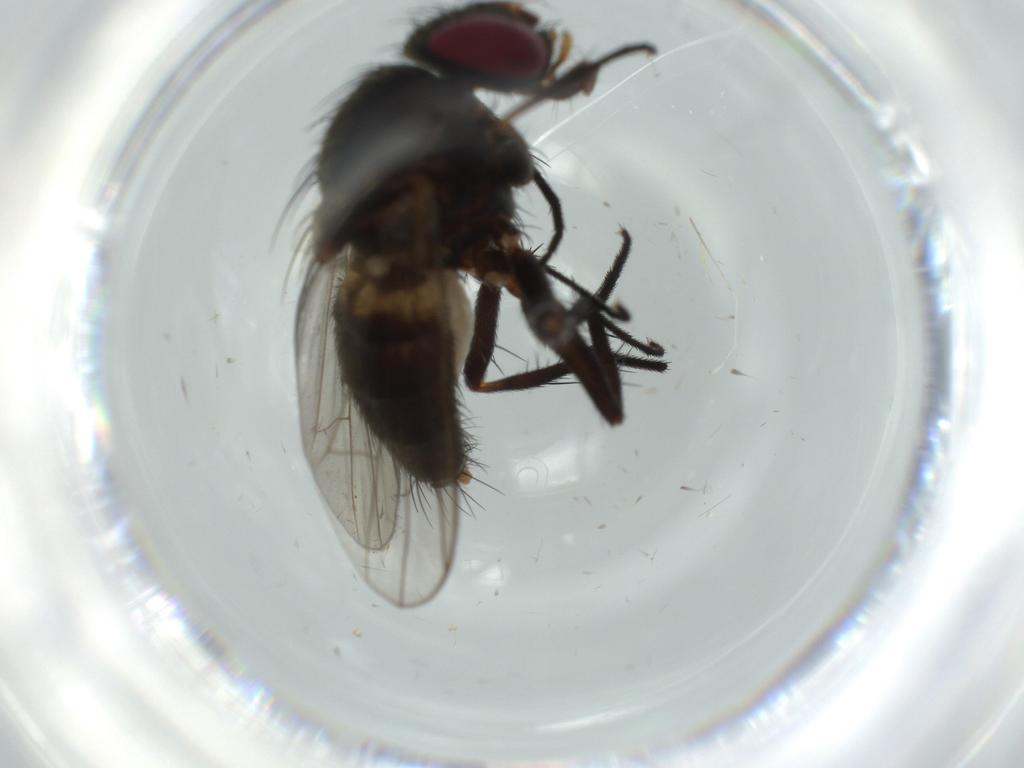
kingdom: Animalia
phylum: Arthropoda
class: Insecta
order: Diptera
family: Fannia
